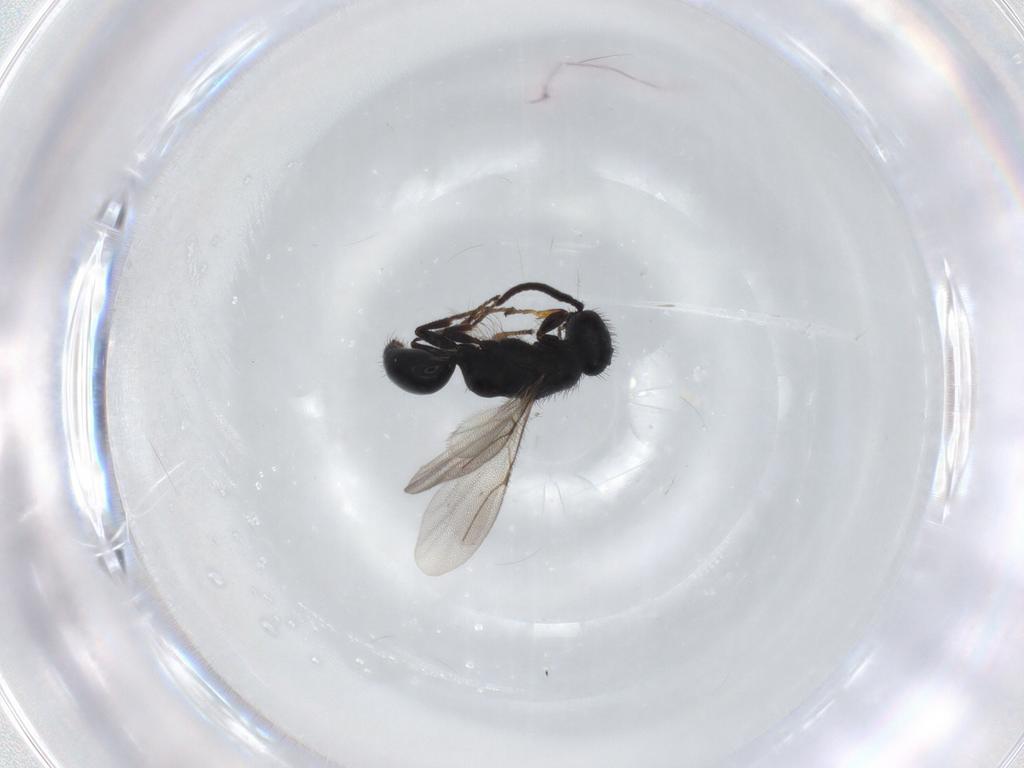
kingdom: Animalia
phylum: Arthropoda
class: Insecta
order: Hymenoptera
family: Bethylidae
